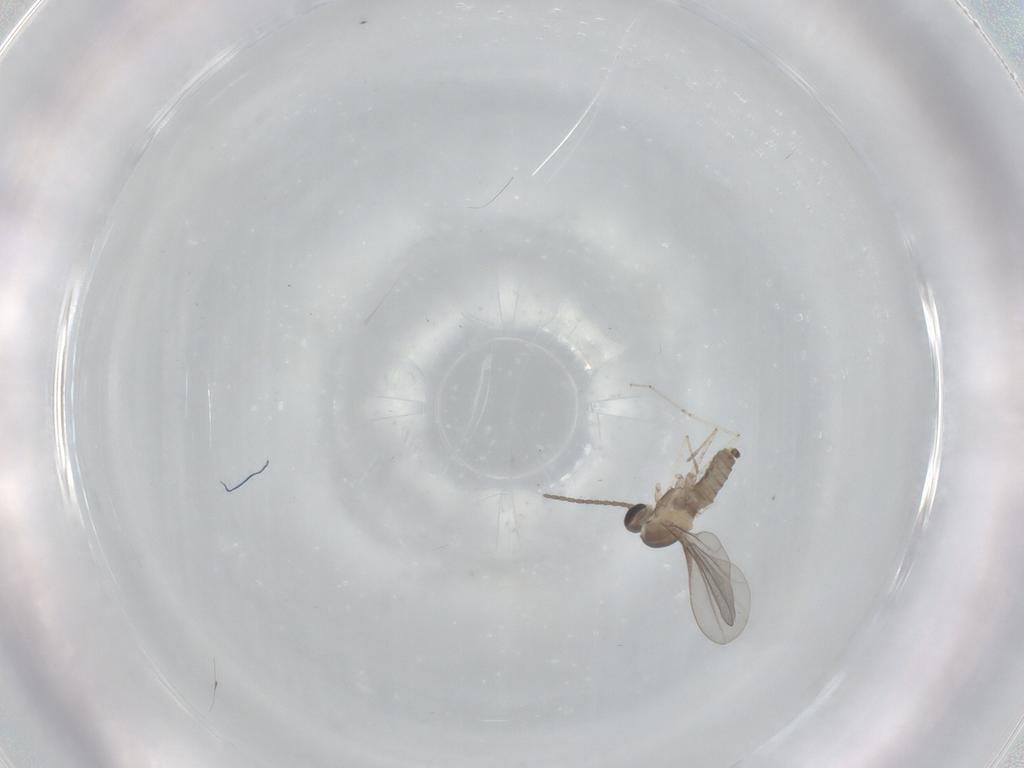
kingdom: Animalia
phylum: Arthropoda
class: Insecta
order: Diptera
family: Cecidomyiidae
